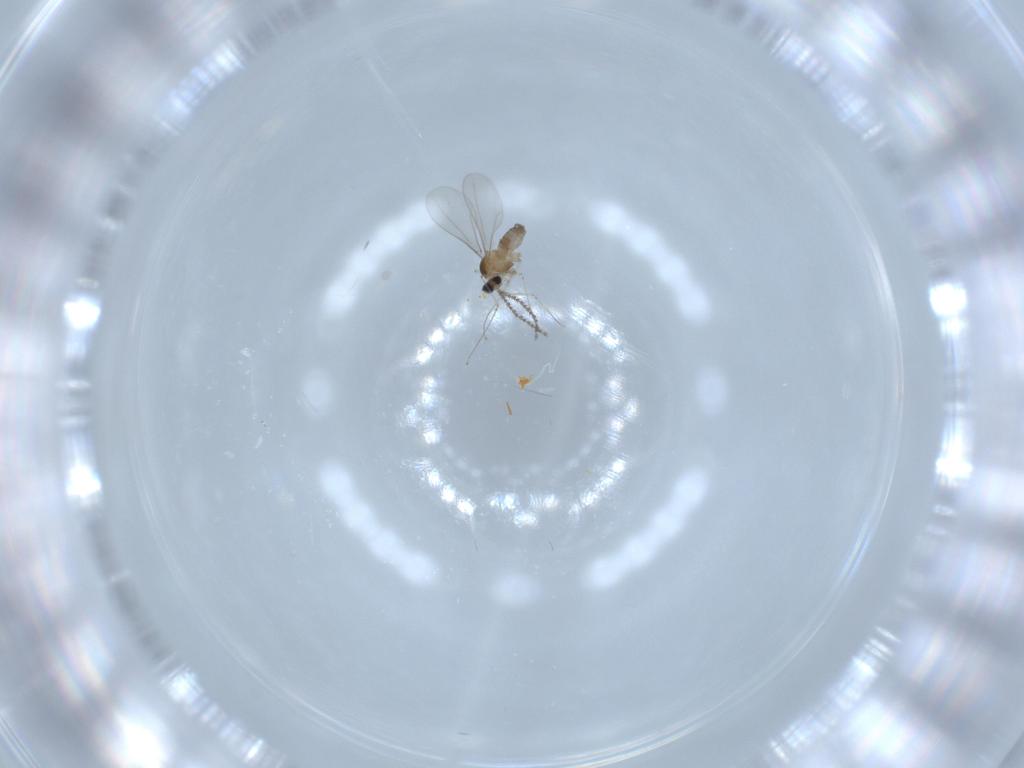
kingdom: Animalia
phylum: Arthropoda
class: Insecta
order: Diptera
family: Cecidomyiidae
